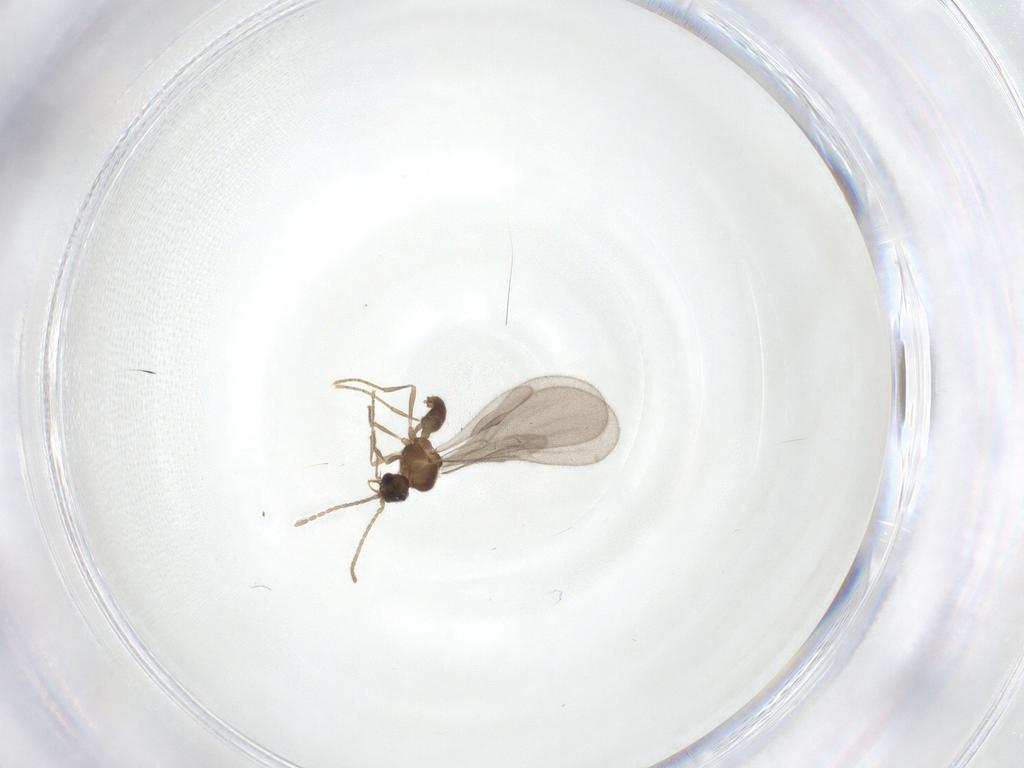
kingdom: Animalia
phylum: Arthropoda
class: Insecta
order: Hymenoptera
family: Formicidae
